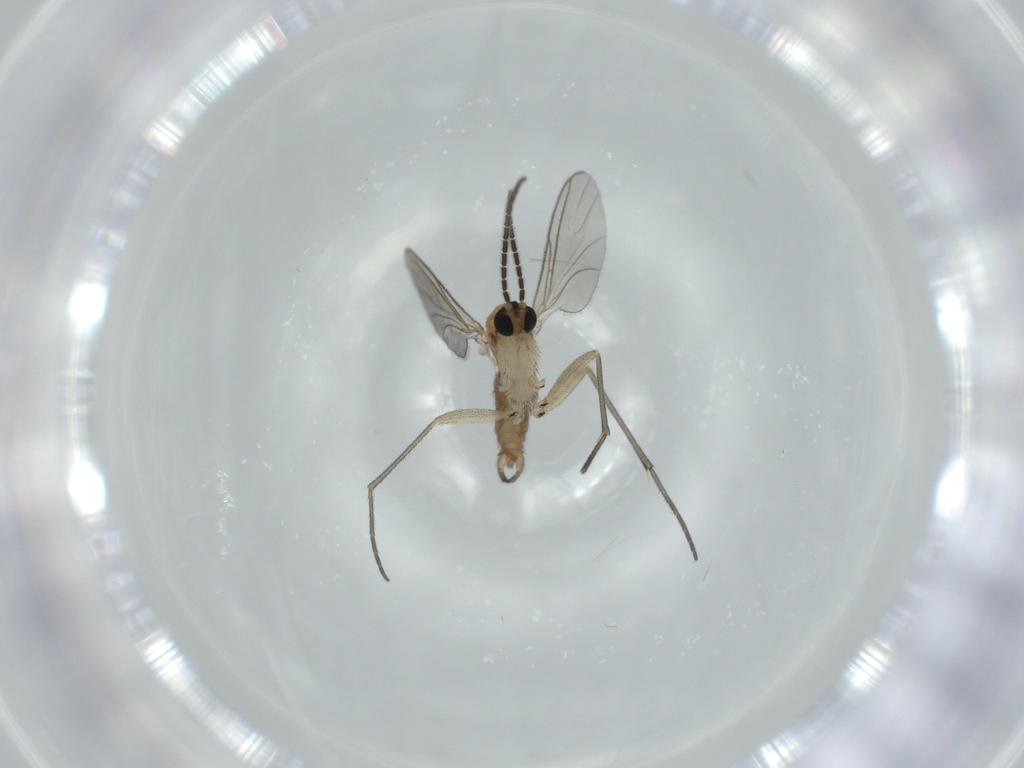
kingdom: Animalia
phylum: Arthropoda
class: Insecta
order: Diptera
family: Sciaridae
